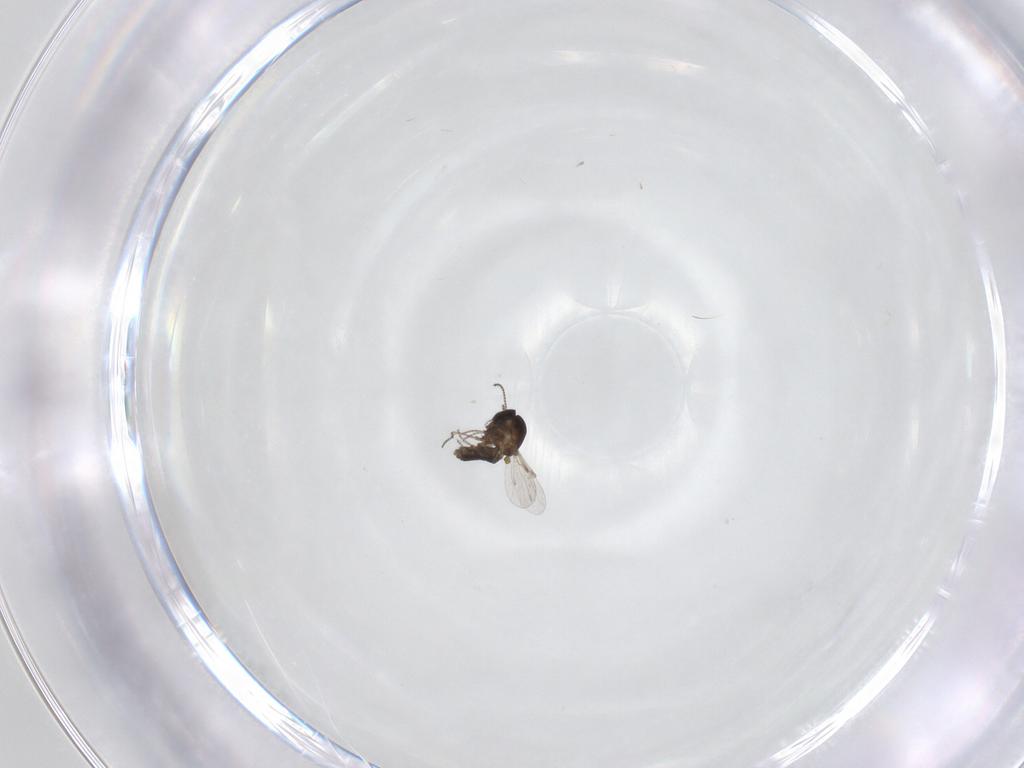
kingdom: Animalia
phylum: Arthropoda
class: Insecta
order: Diptera
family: Ceratopogonidae
